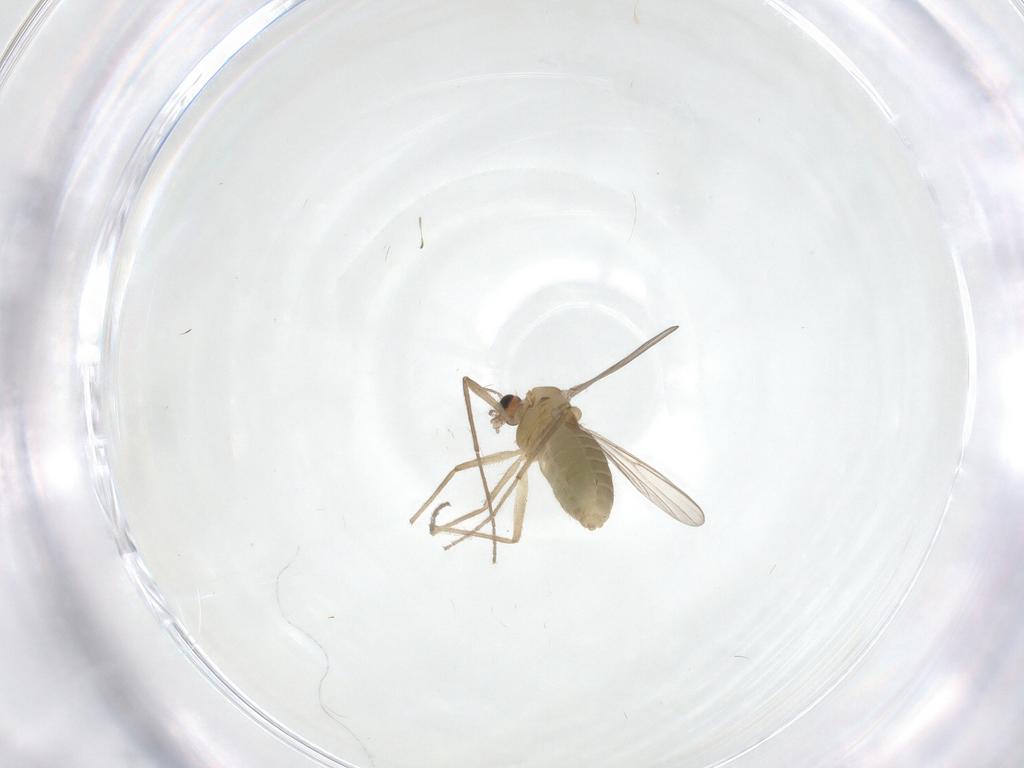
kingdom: Animalia
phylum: Arthropoda
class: Insecta
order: Diptera
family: Chironomidae
